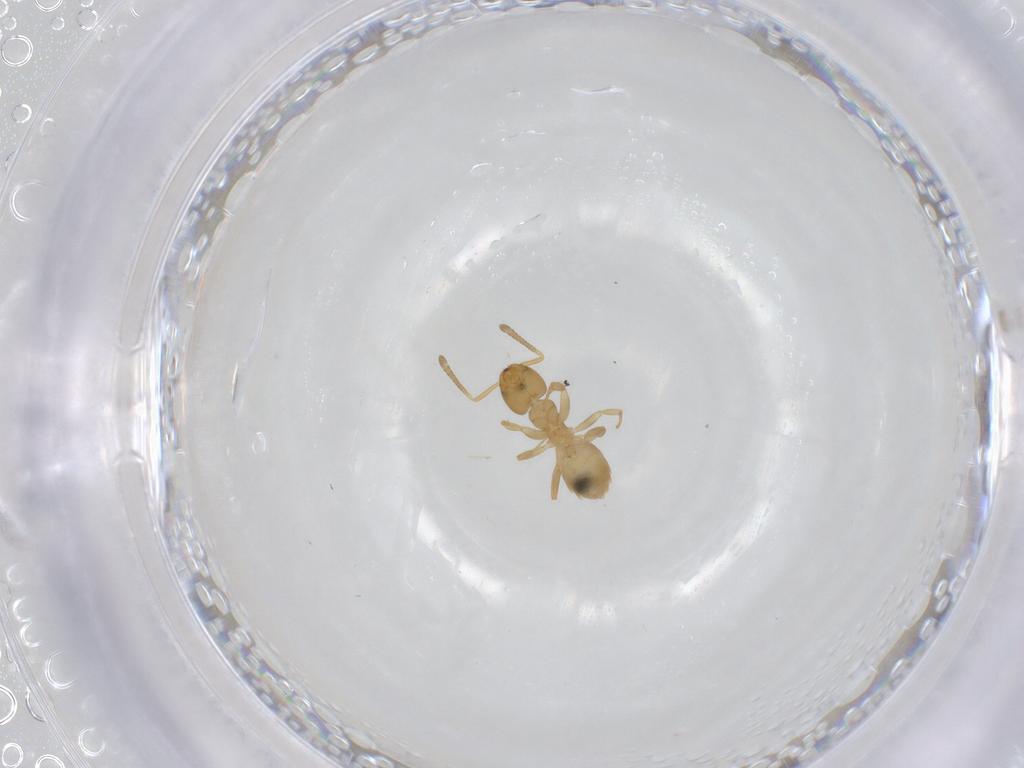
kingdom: Animalia
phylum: Arthropoda
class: Insecta
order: Hymenoptera
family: Formicidae
